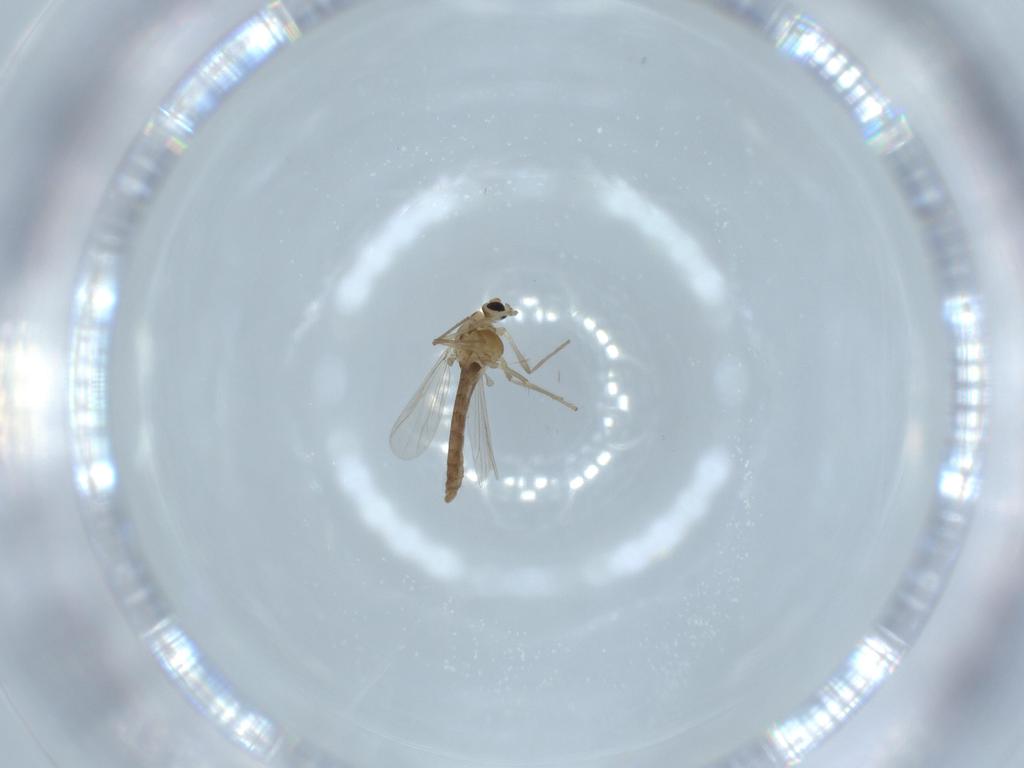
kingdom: Animalia
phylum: Arthropoda
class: Insecta
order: Diptera
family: Chironomidae
